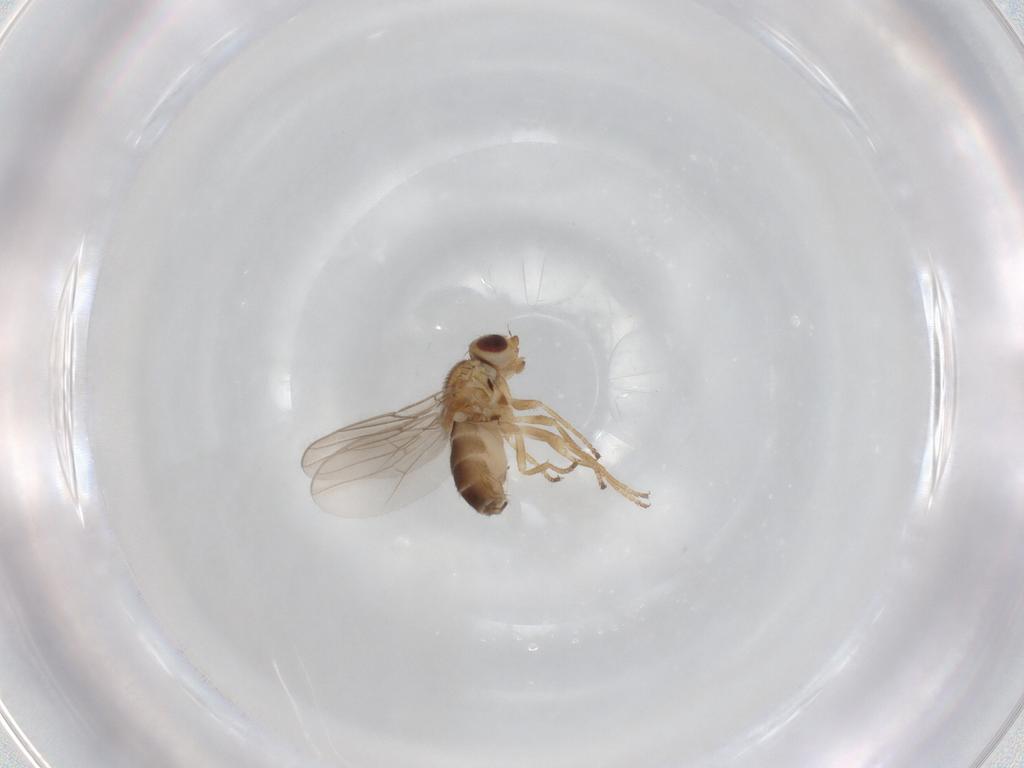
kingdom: Animalia
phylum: Arthropoda
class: Insecta
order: Diptera
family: Chloropidae
